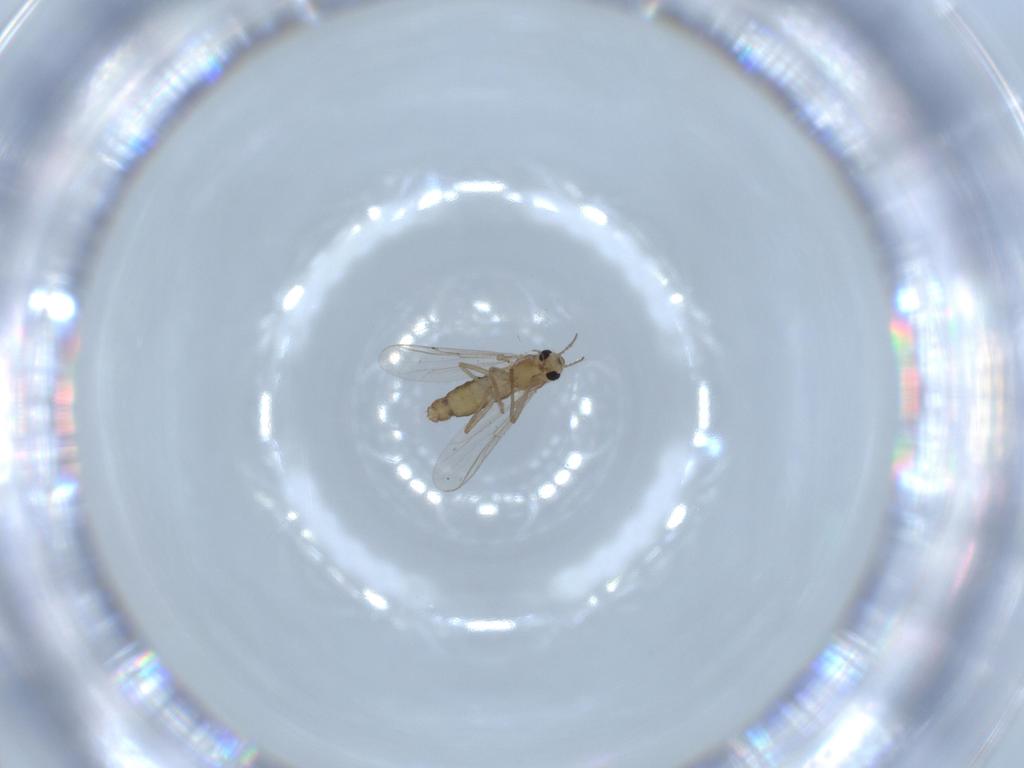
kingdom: Animalia
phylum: Arthropoda
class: Insecta
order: Diptera
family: Chironomidae
